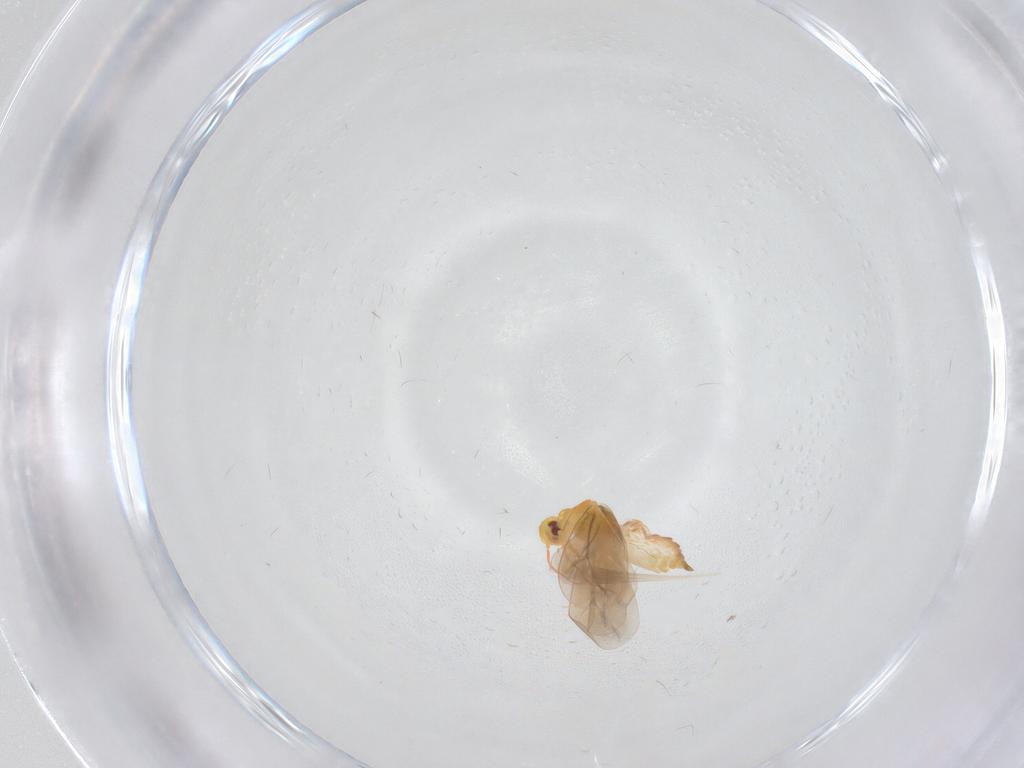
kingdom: Animalia
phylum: Arthropoda
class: Insecta
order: Hemiptera
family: Aleyrodidae
